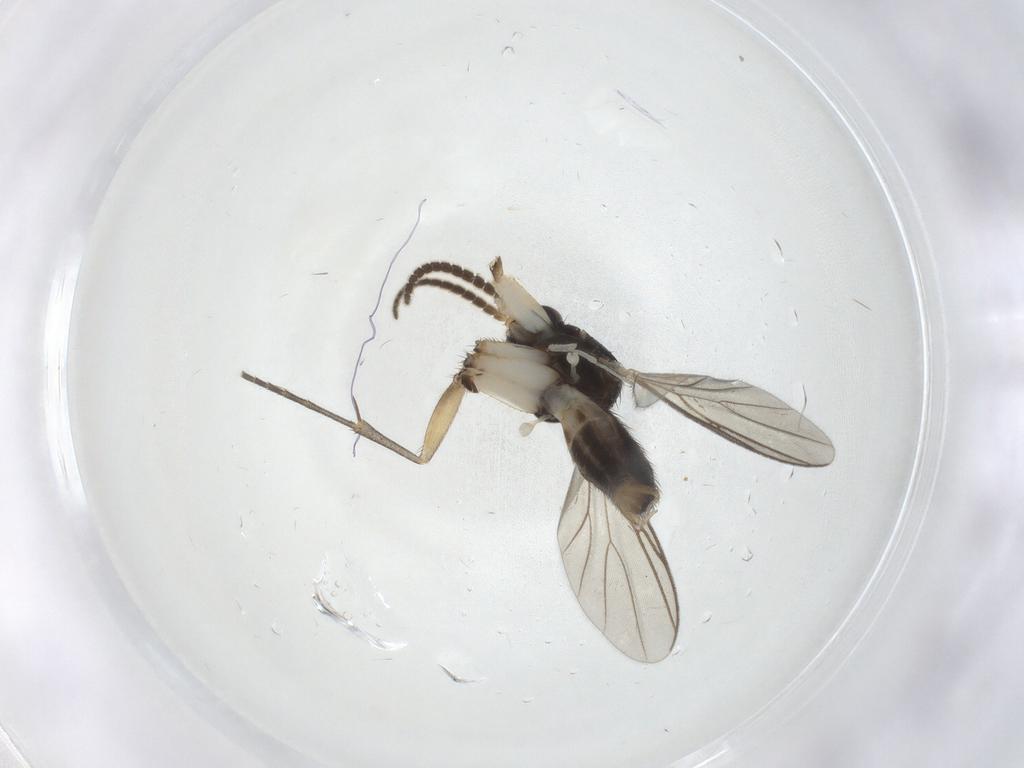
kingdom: Animalia
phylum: Arthropoda
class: Insecta
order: Diptera
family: Mycetophilidae
